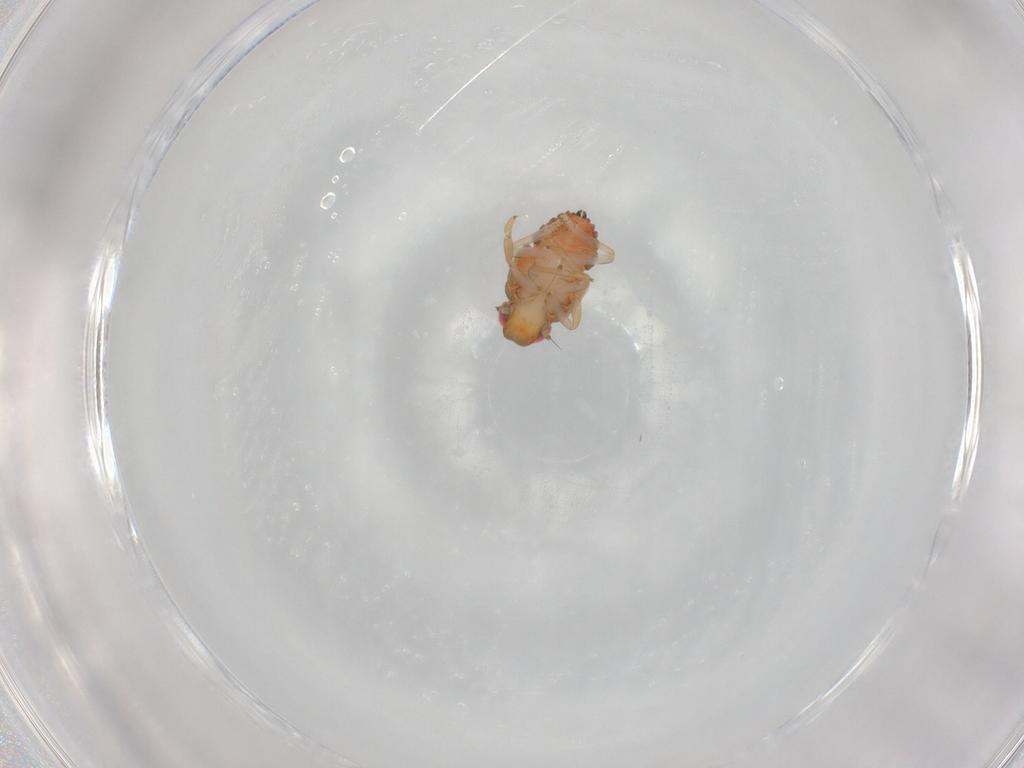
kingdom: Animalia
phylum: Arthropoda
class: Insecta
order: Hemiptera
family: Issidae
